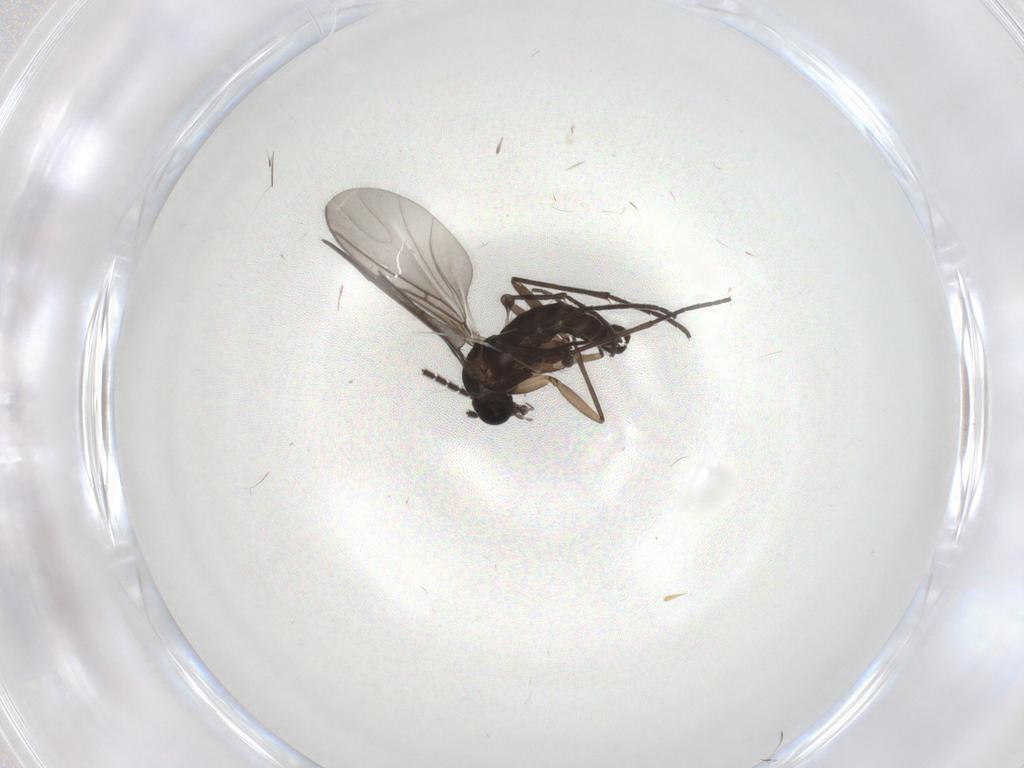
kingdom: Animalia
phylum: Arthropoda
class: Insecta
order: Diptera
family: Sciaridae
